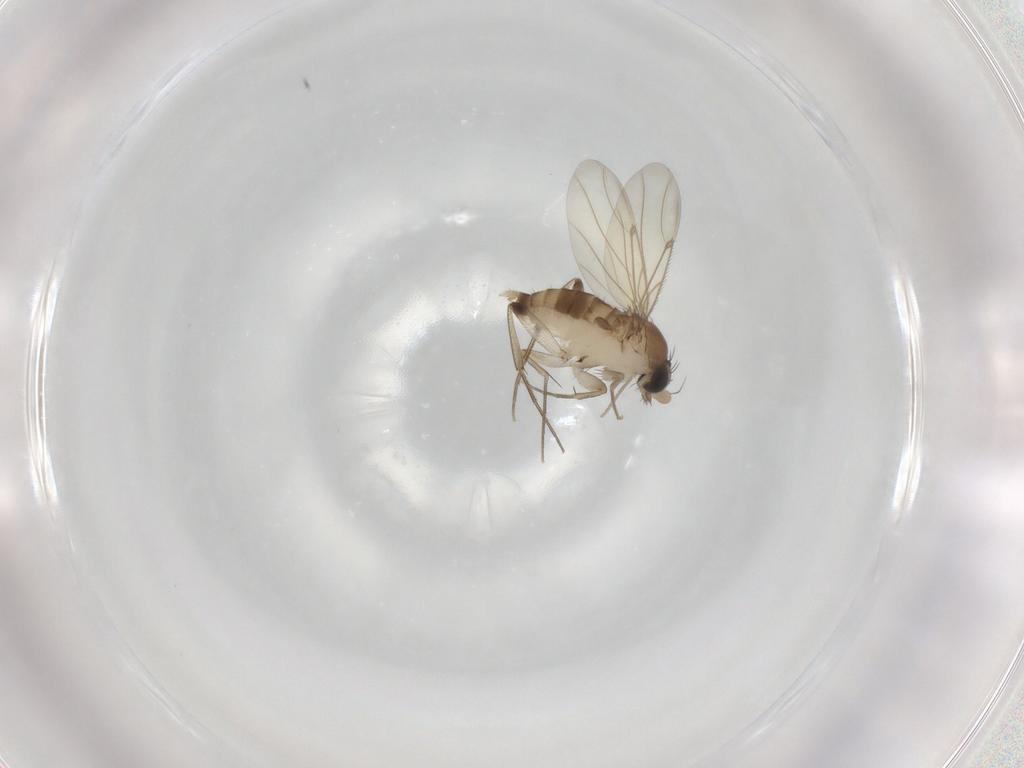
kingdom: Animalia
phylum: Arthropoda
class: Insecta
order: Diptera
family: Phoridae
